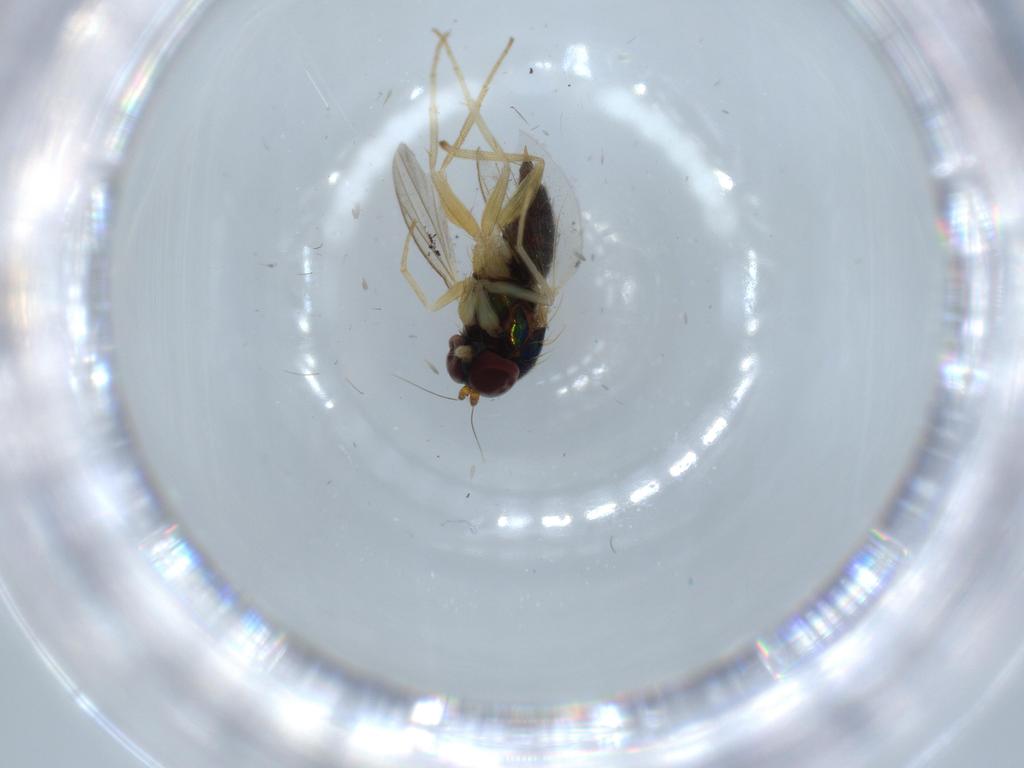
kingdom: Animalia
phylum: Arthropoda
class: Insecta
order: Diptera
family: Dolichopodidae
